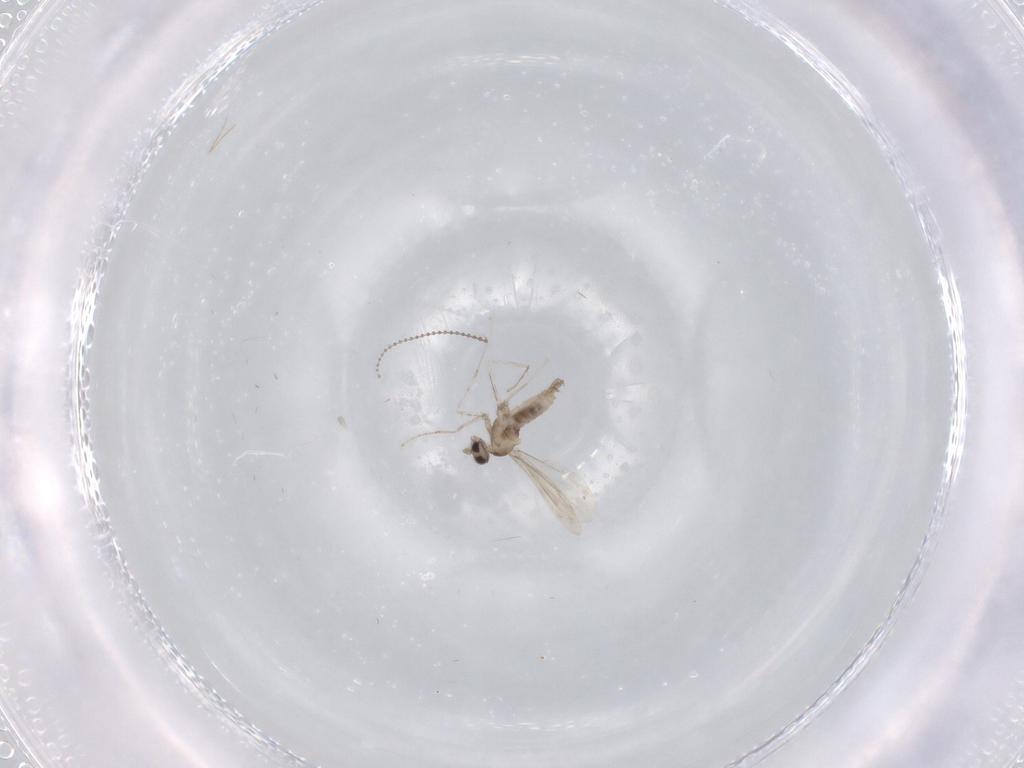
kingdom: Animalia
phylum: Arthropoda
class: Insecta
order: Diptera
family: Cecidomyiidae
